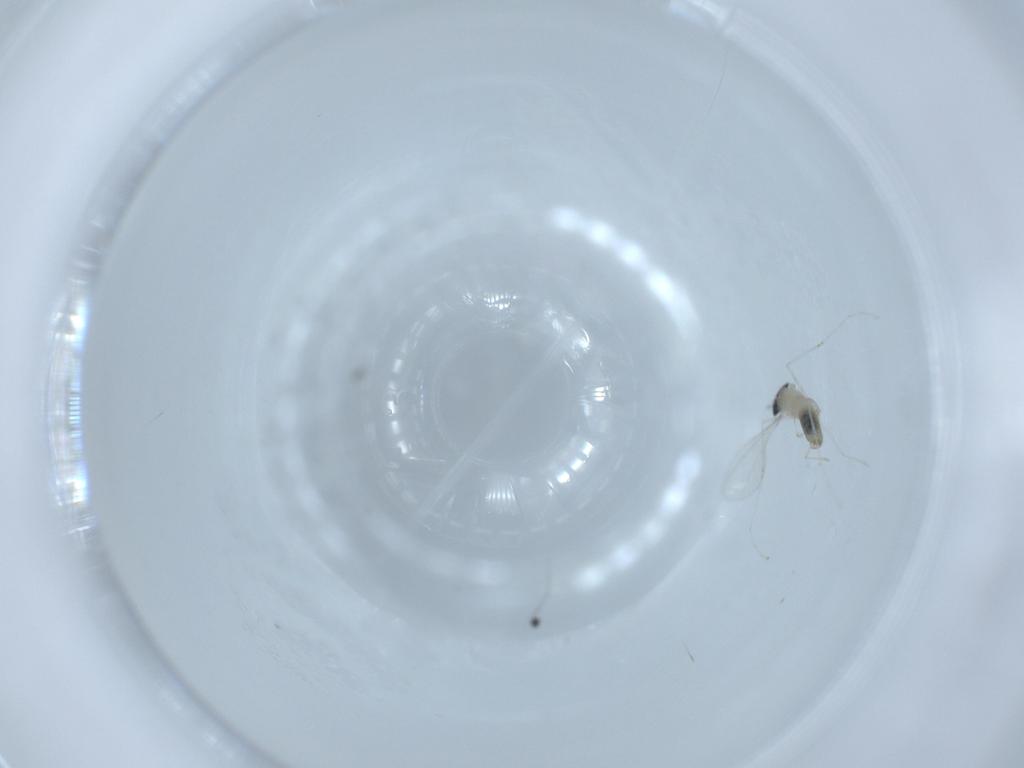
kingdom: Animalia
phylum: Arthropoda
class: Insecta
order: Diptera
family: Cecidomyiidae
